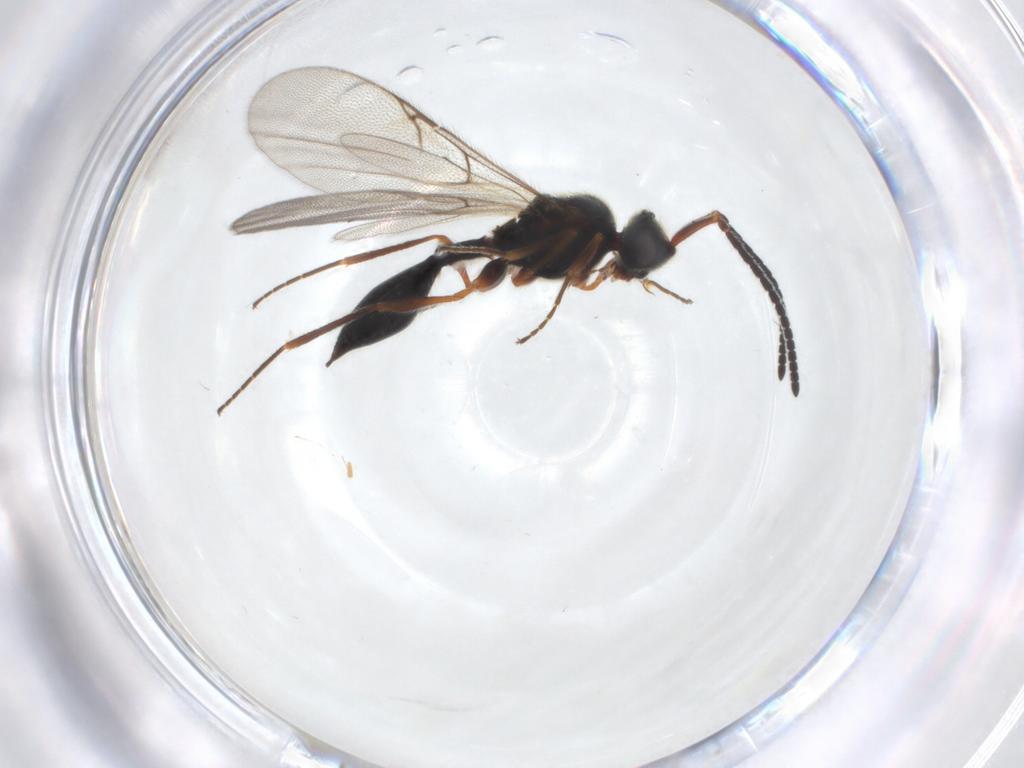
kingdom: Animalia
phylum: Arthropoda
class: Insecta
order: Hymenoptera
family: Diapriidae
